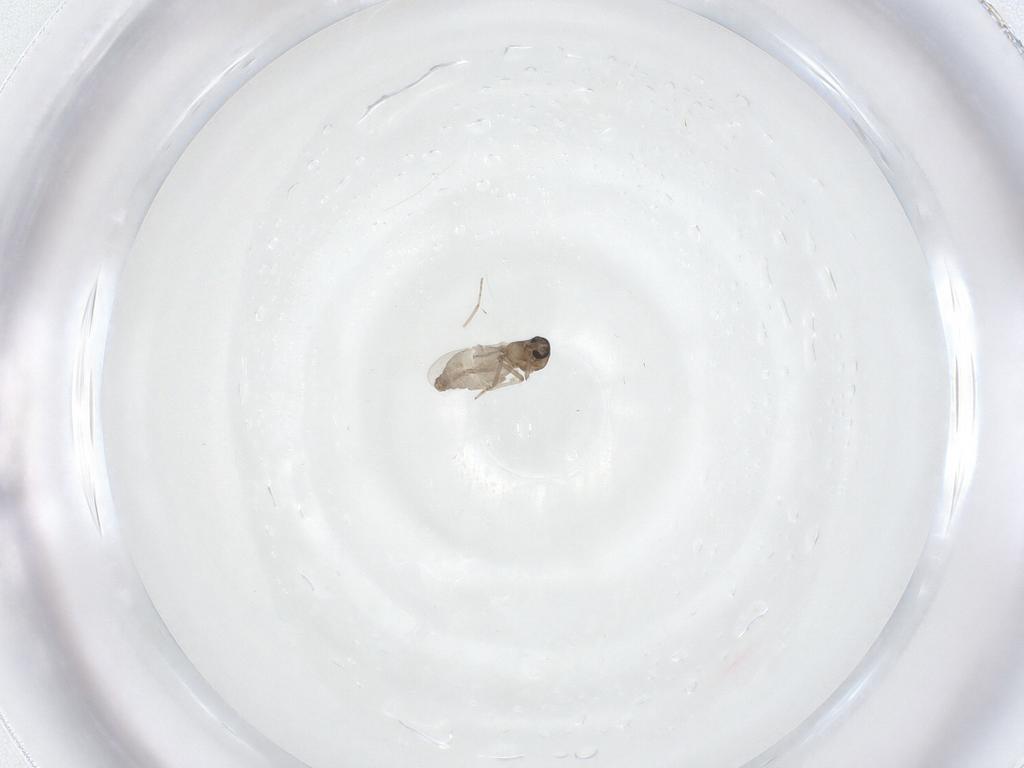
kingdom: Animalia
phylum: Arthropoda
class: Insecta
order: Diptera
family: Ceratopogonidae
